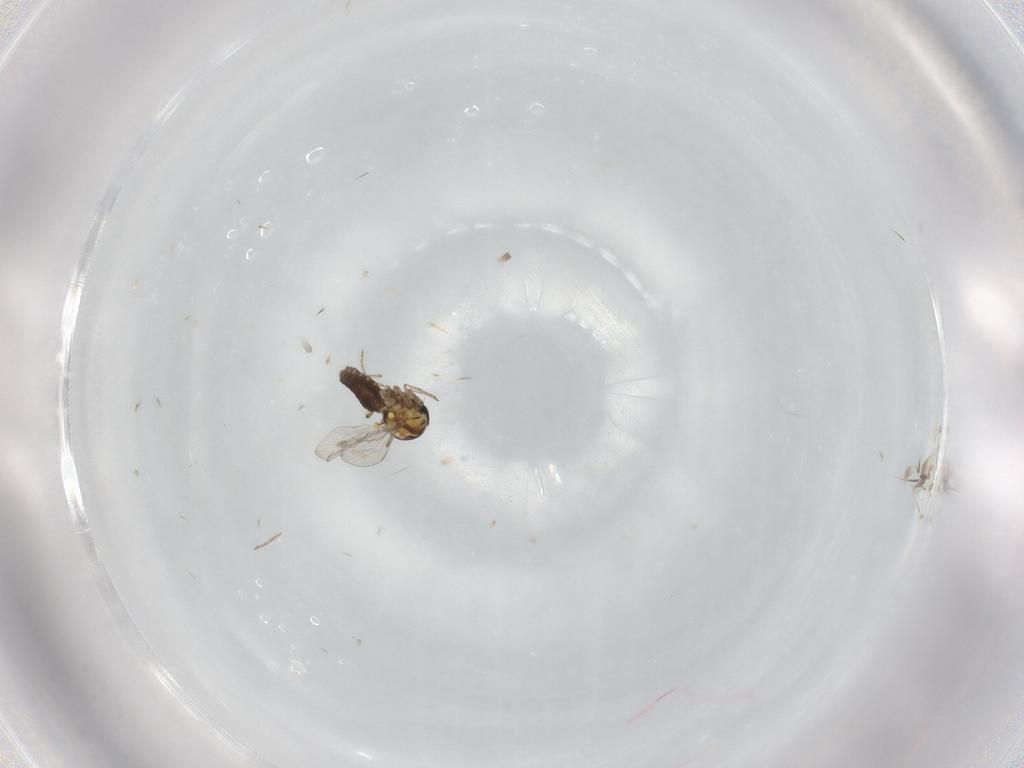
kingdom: Animalia
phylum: Arthropoda
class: Insecta
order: Diptera
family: Ceratopogonidae
